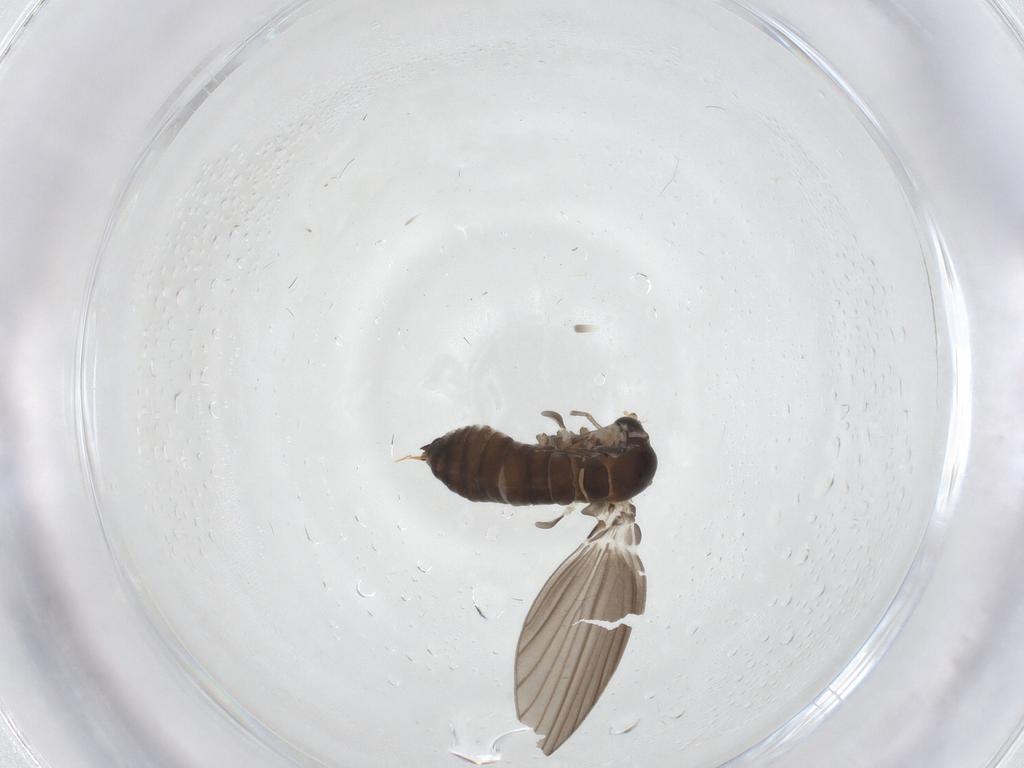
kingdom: Animalia
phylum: Arthropoda
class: Insecta
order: Diptera
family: Psychodidae
